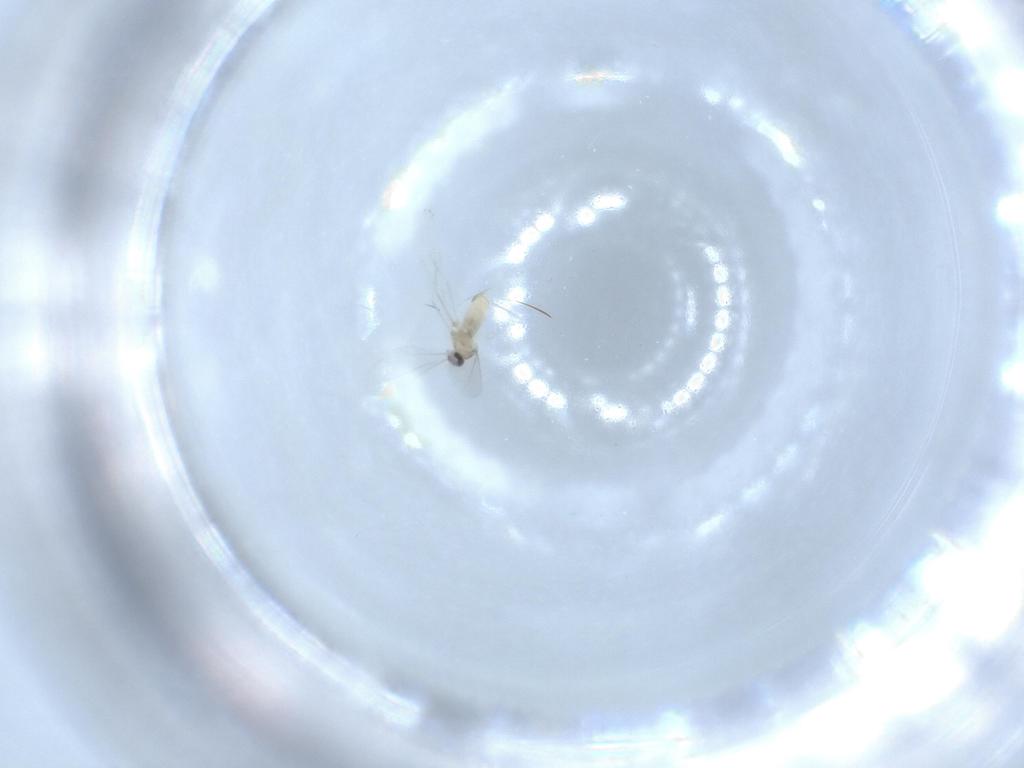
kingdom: Animalia
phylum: Arthropoda
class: Insecta
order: Diptera
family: Cecidomyiidae
